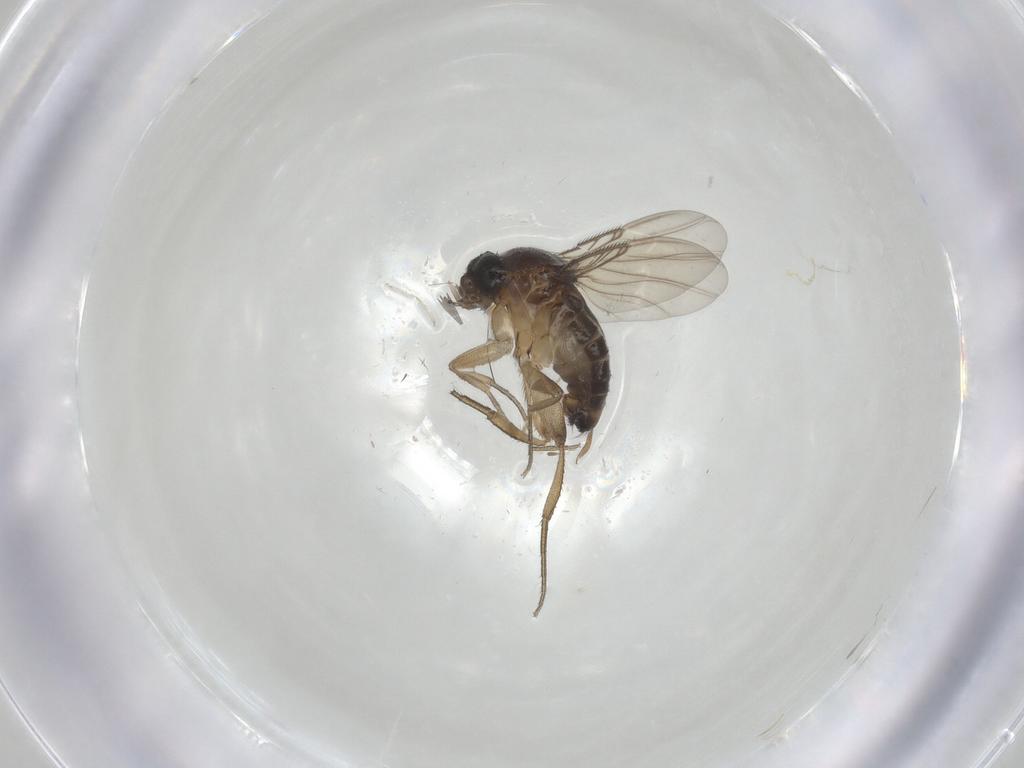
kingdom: Animalia
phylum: Arthropoda
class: Insecta
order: Diptera
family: Phoridae
